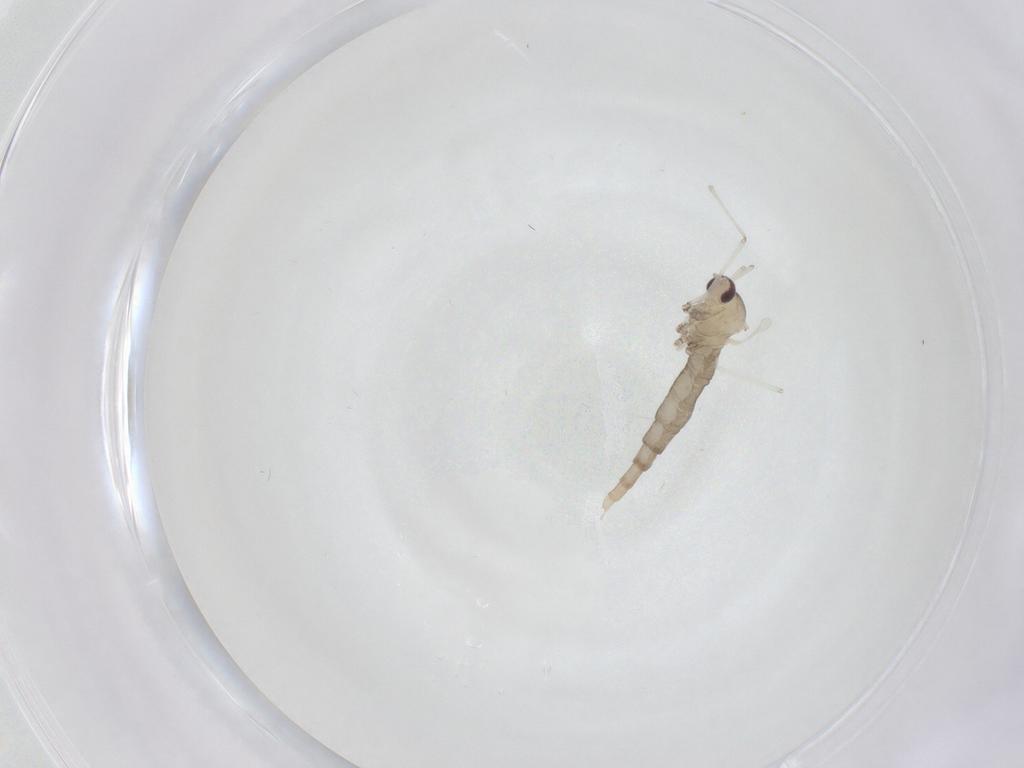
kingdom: Animalia
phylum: Arthropoda
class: Insecta
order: Diptera
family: Cecidomyiidae
